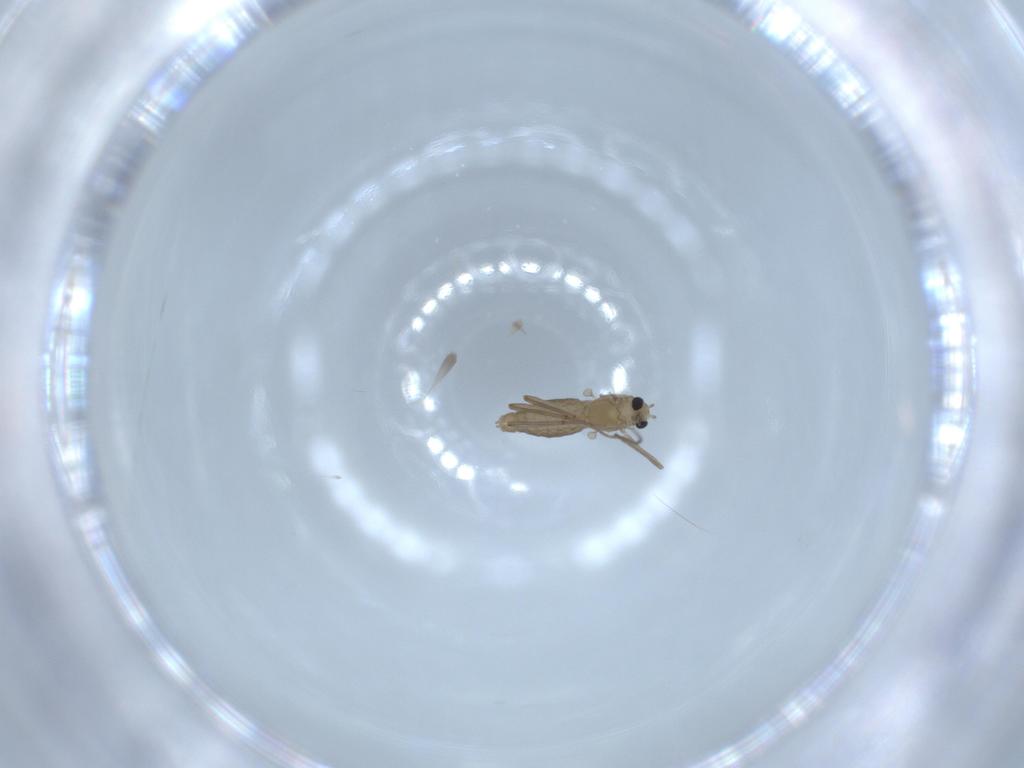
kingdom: Animalia
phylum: Arthropoda
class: Insecta
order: Diptera
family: Chironomidae
